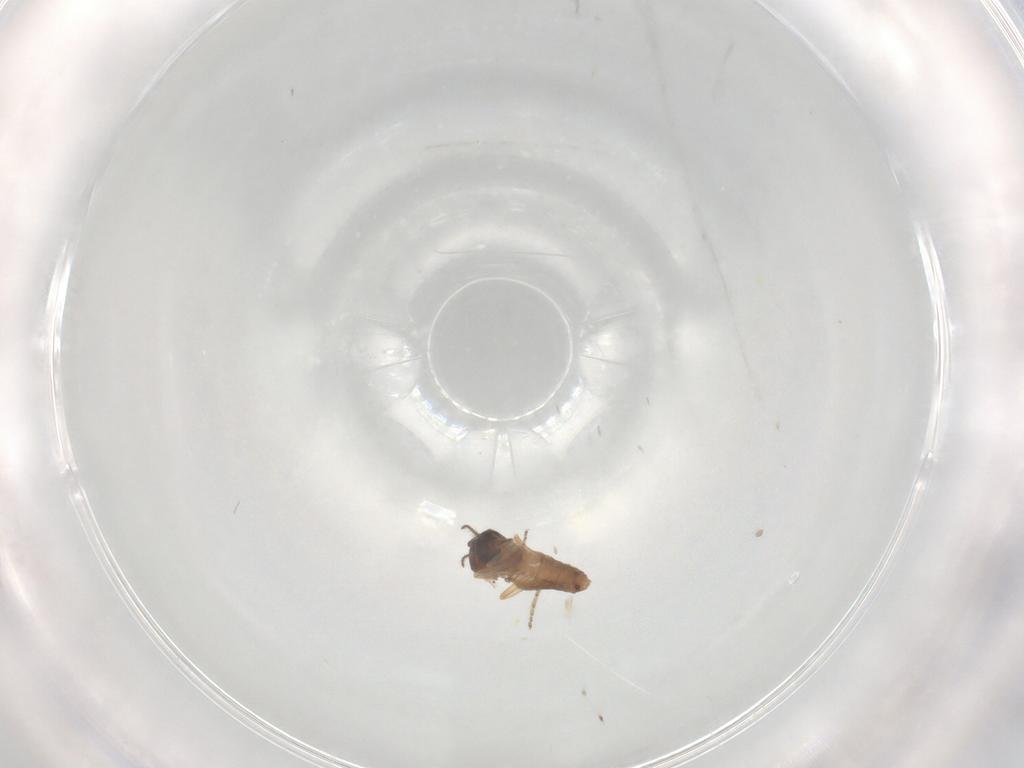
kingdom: Animalia
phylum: Arthropoda
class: Insecta
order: Diptera
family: Ceratopogonidae
